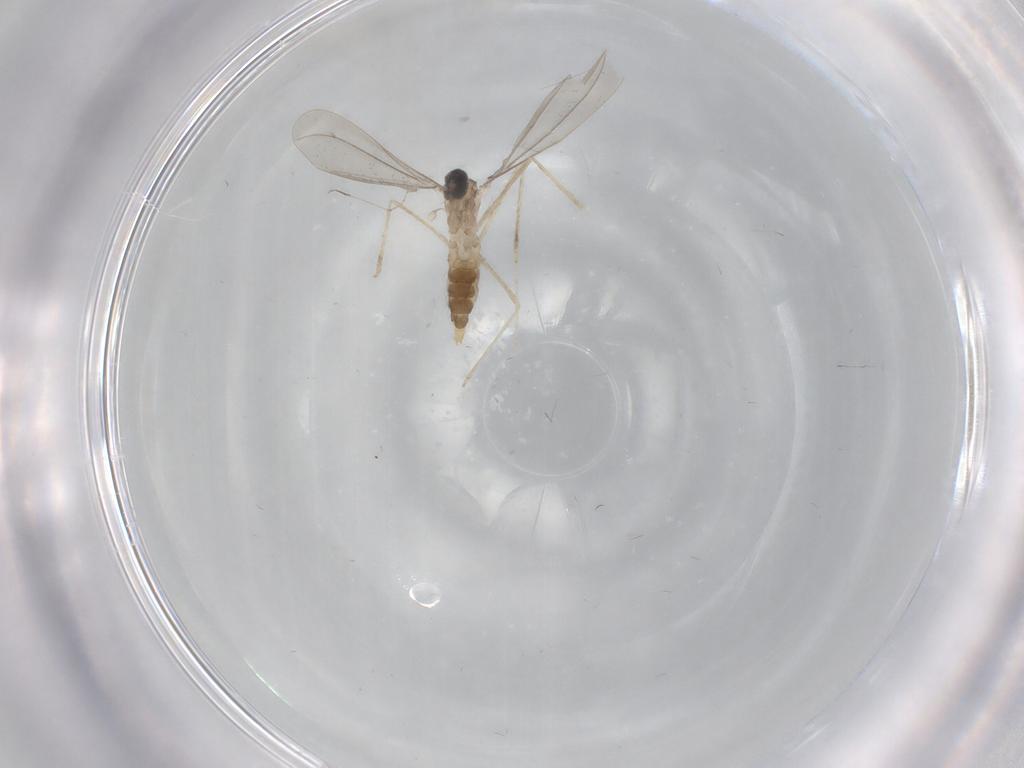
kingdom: Animalia
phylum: Arthropoda
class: Insecta
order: Diptera
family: Cecidomyiidae
